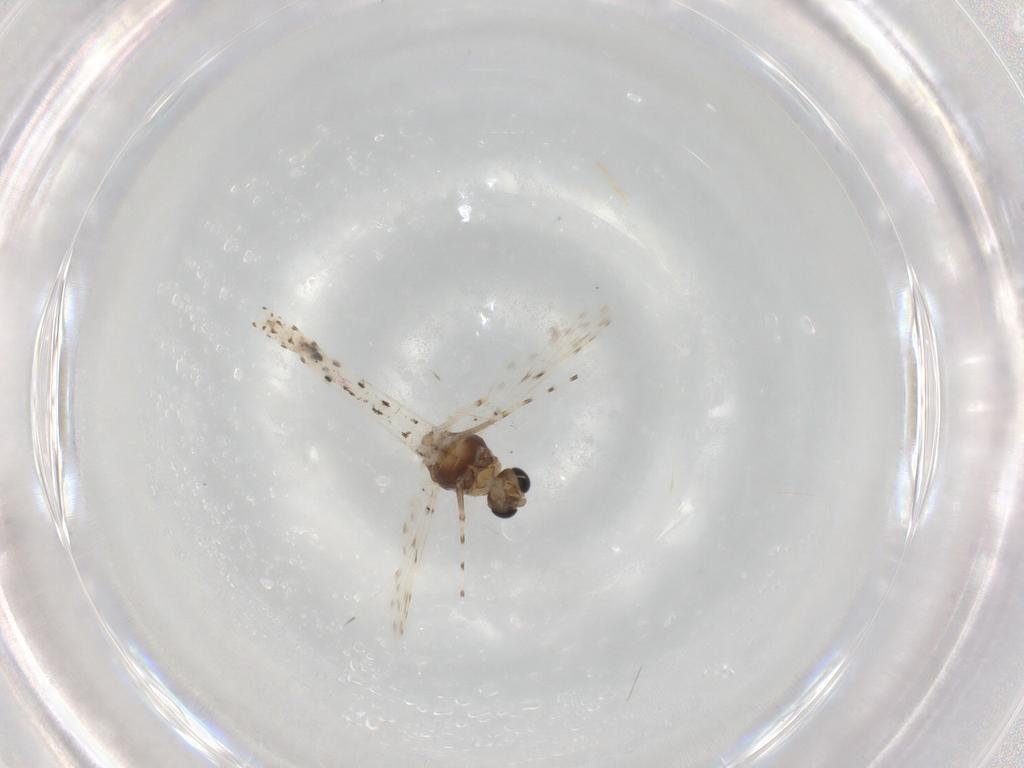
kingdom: Animalia
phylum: Arthropoda
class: Insecta
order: Diptera
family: Chironomidae
